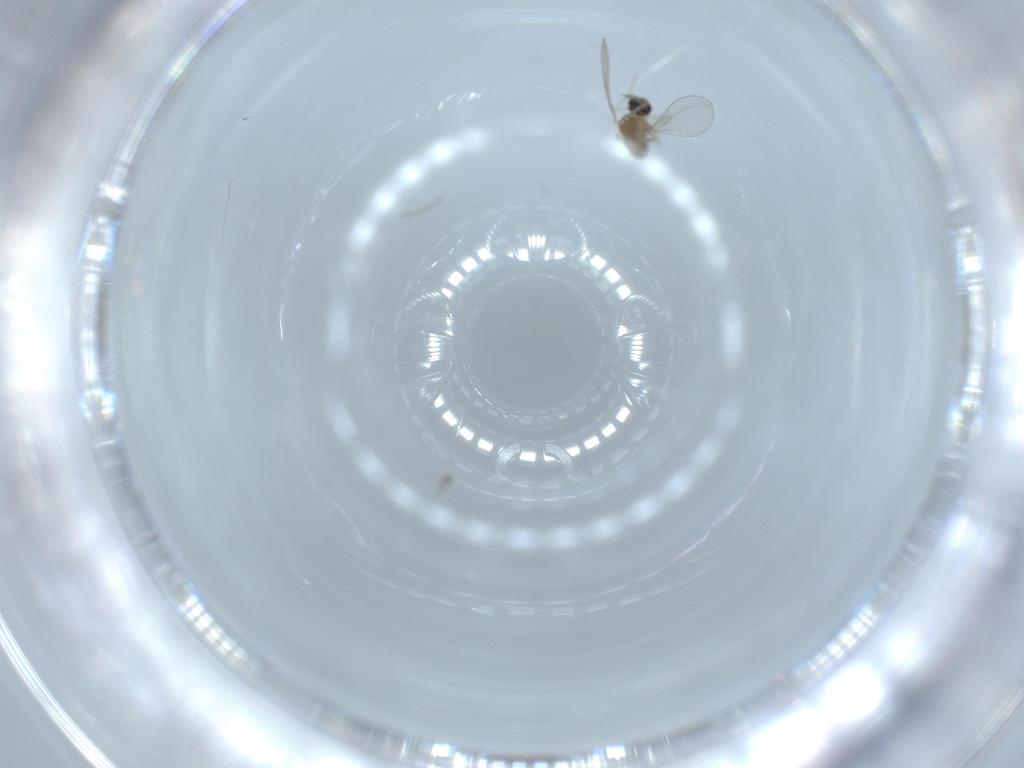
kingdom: Animalia
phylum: Arthropoda
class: Insecta
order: Diptera
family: Cecidomyiidae
